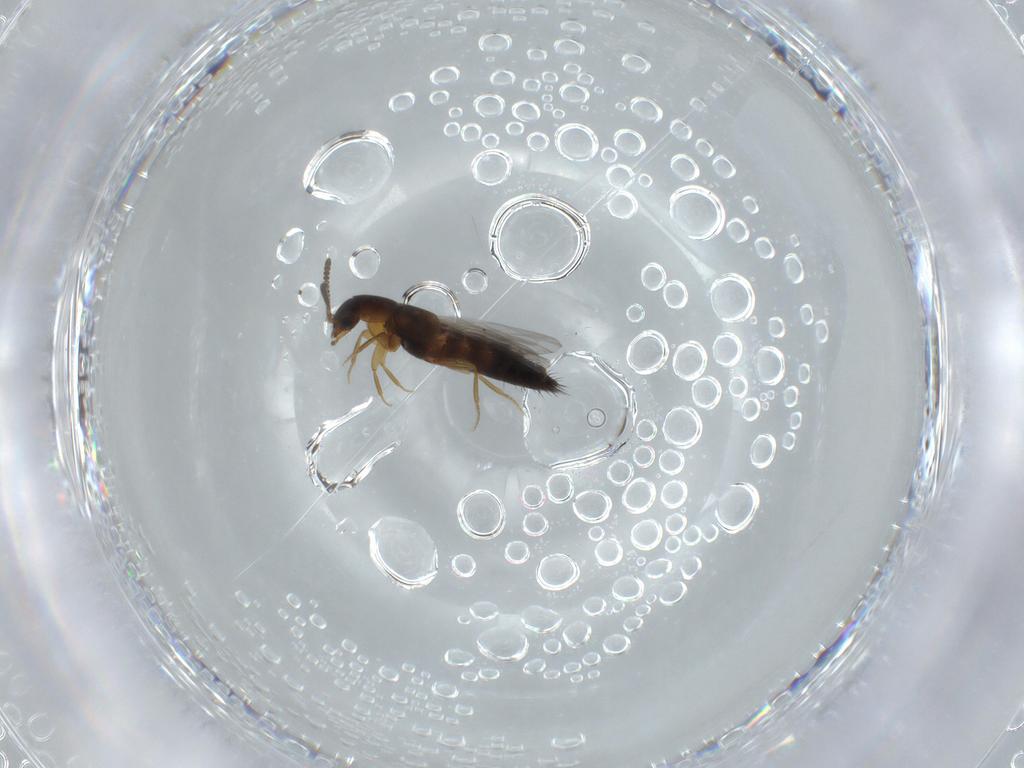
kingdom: Animalia
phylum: Arthropoda
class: Insecta
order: Coleoptera
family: Staphylinidae
